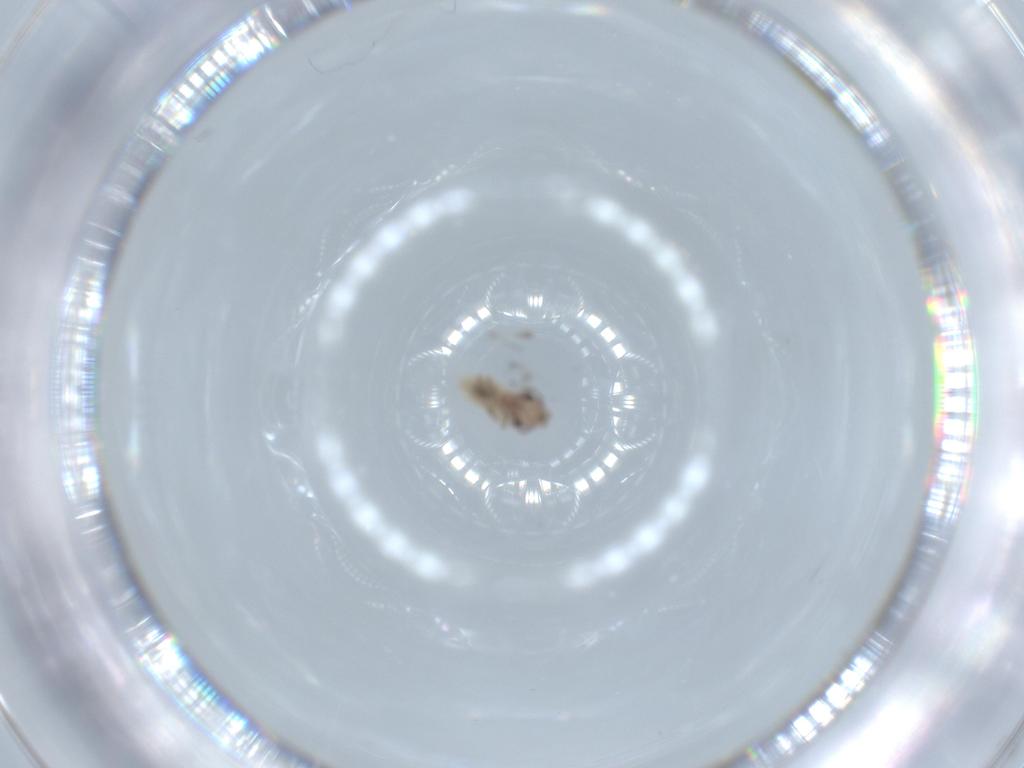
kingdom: Animalia
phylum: Arthropoda
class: Insecta
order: Diptera
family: Cecidomyiidae
